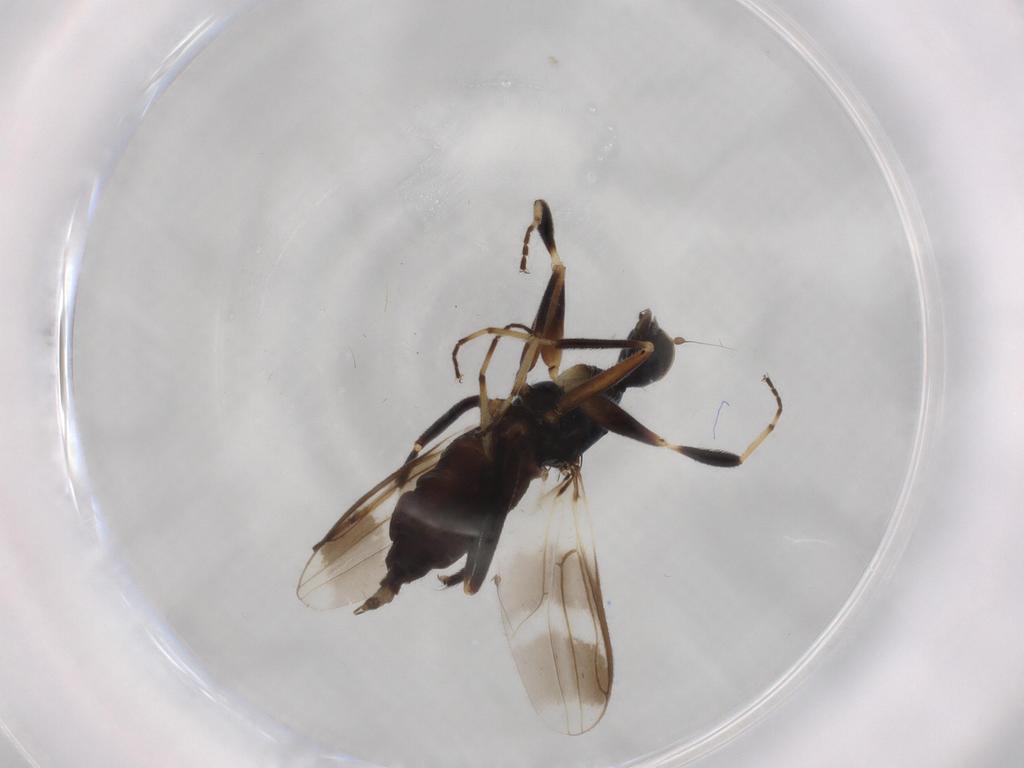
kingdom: Animalia
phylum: Arthropoda
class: Insecta
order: Diptera
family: Hybotidae
